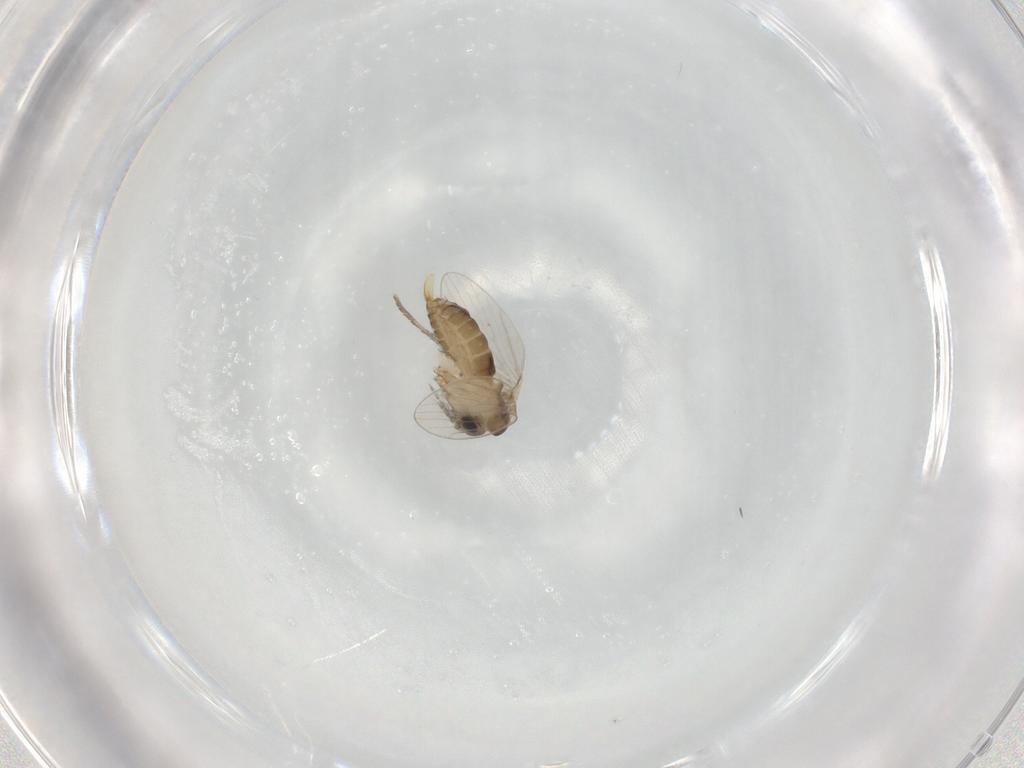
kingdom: Animalia
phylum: Arthropoda
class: Insecta
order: Diptera
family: Psychodidae
